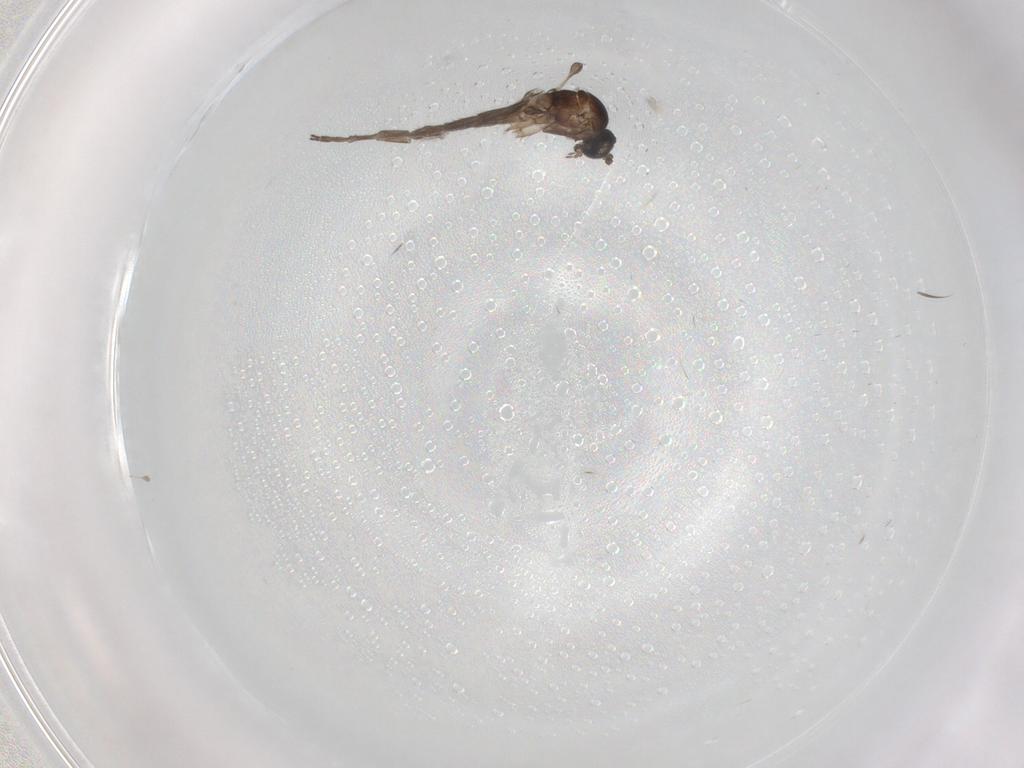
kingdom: Animalia
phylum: Arthropoda
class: Insecta
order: Diptera
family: Sciaridae
